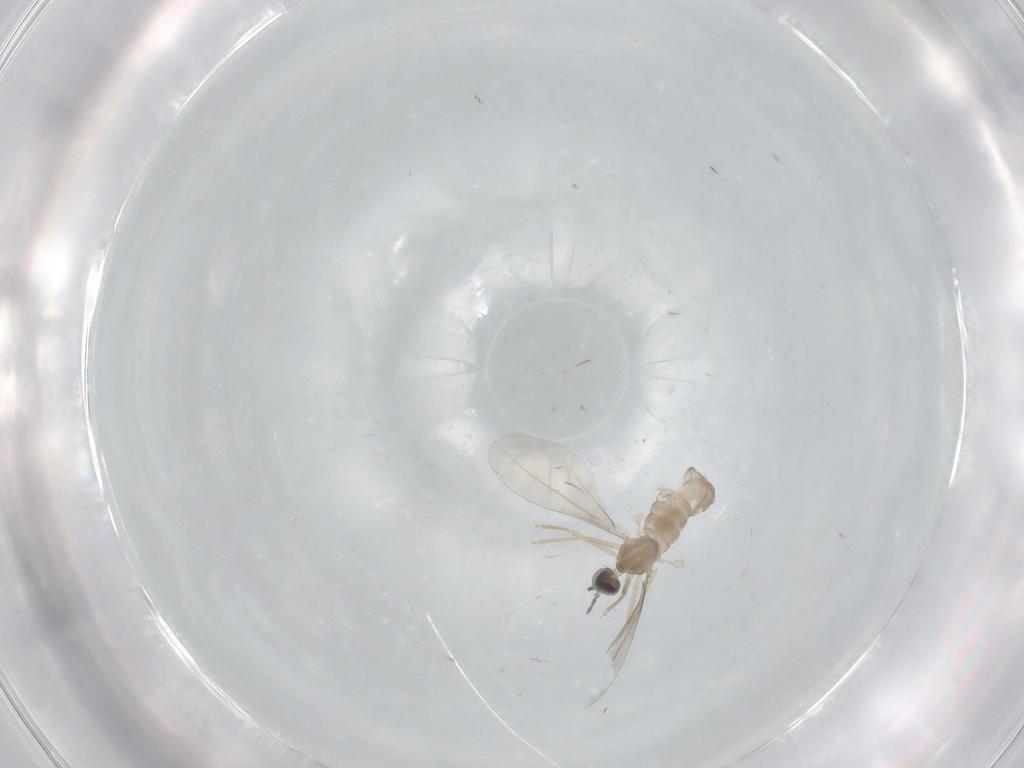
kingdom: Animalia
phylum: Arthropoda
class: Insecta
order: Diptera
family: Cecidomyiidae
